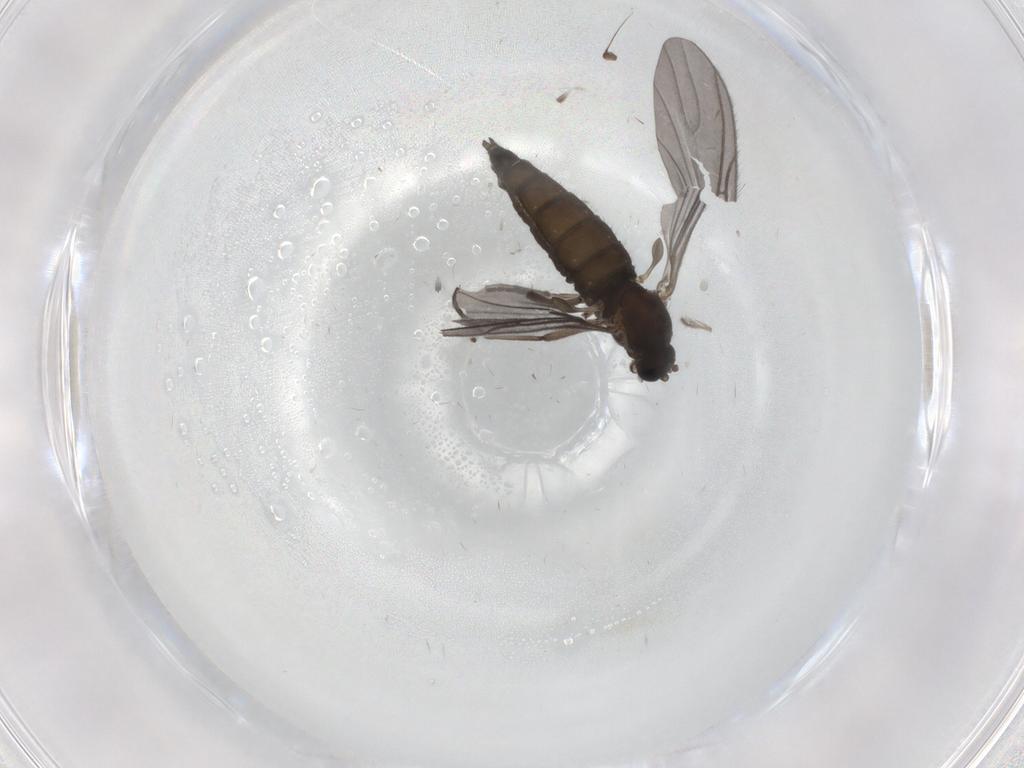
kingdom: Animalia
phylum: Arthropoda
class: Insecta
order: Diptera
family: Sciaridae
